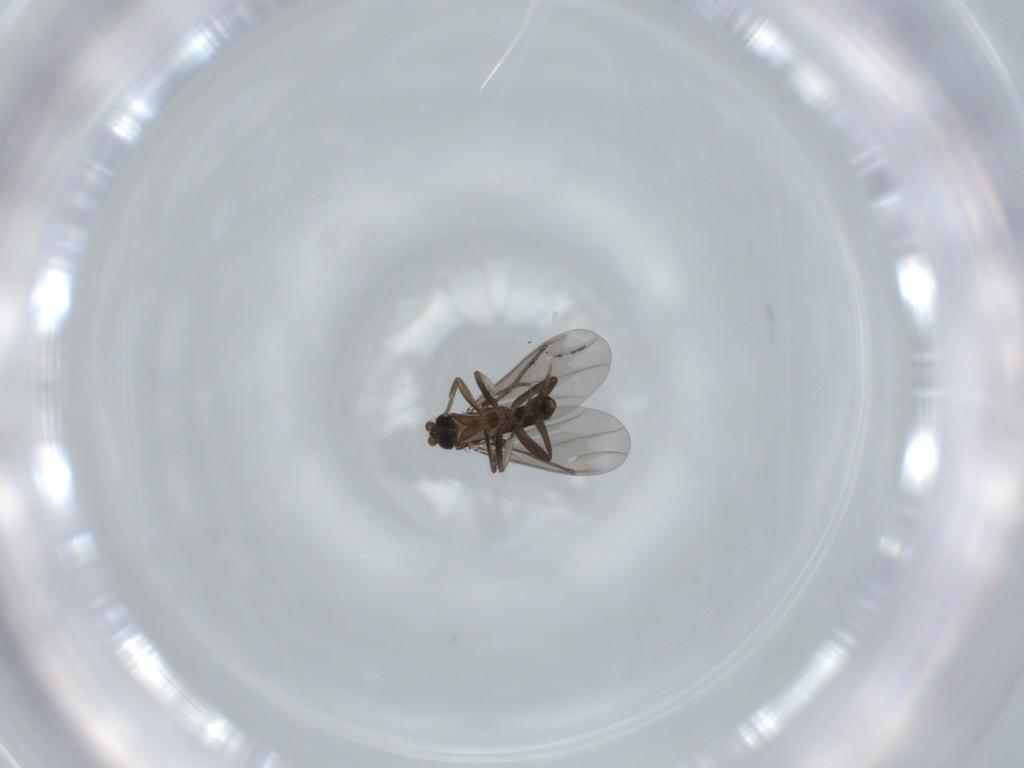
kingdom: Animalia
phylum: Arthropoda
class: Insecta
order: Diptera
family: Phoridae
